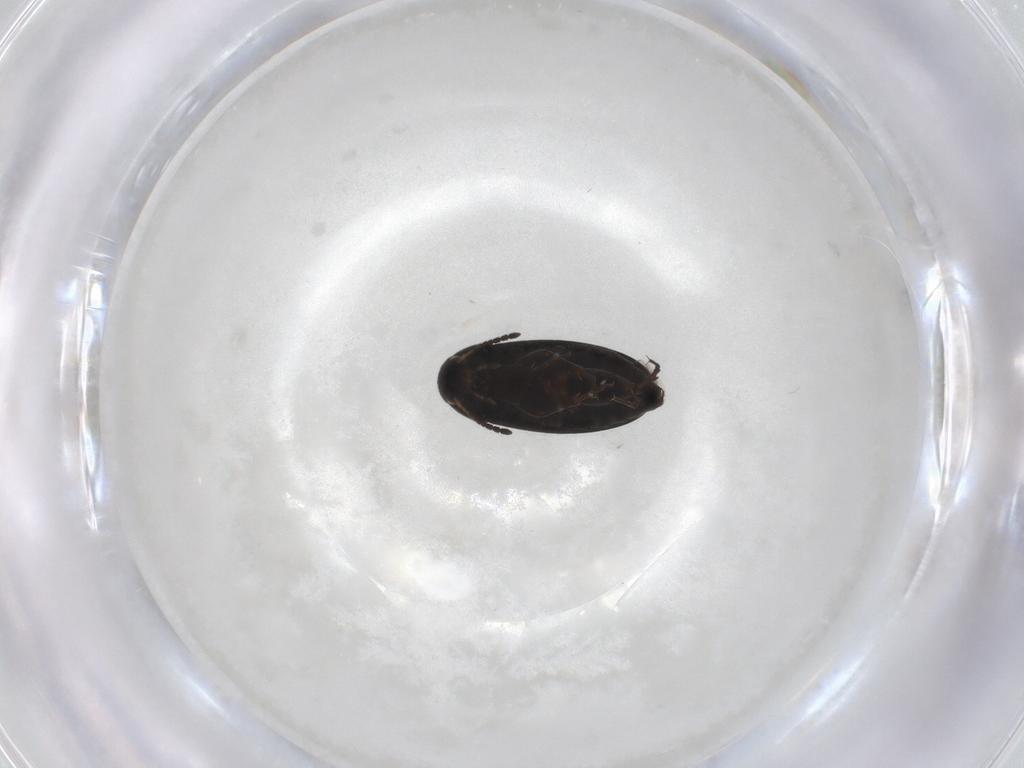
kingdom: Animalia
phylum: Arthropoda
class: Insecta
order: Coleoptera
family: Scraptiidae
